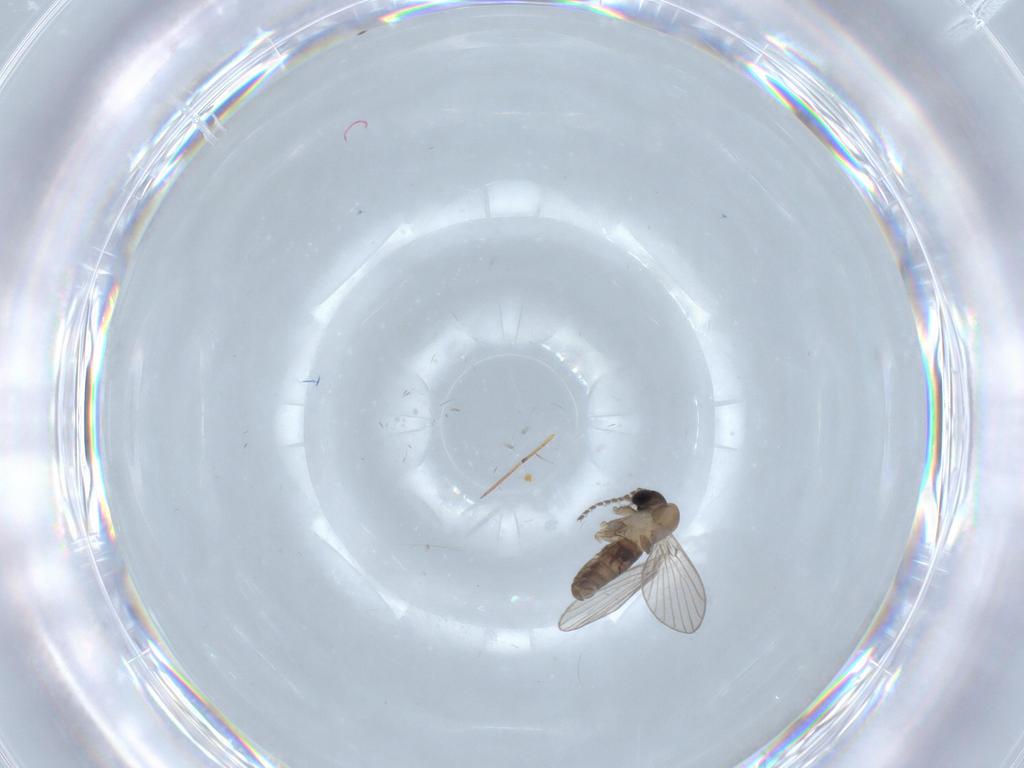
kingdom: Animalia
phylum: Arthropoda
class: Insecta
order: Diptera
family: Psychodidae
